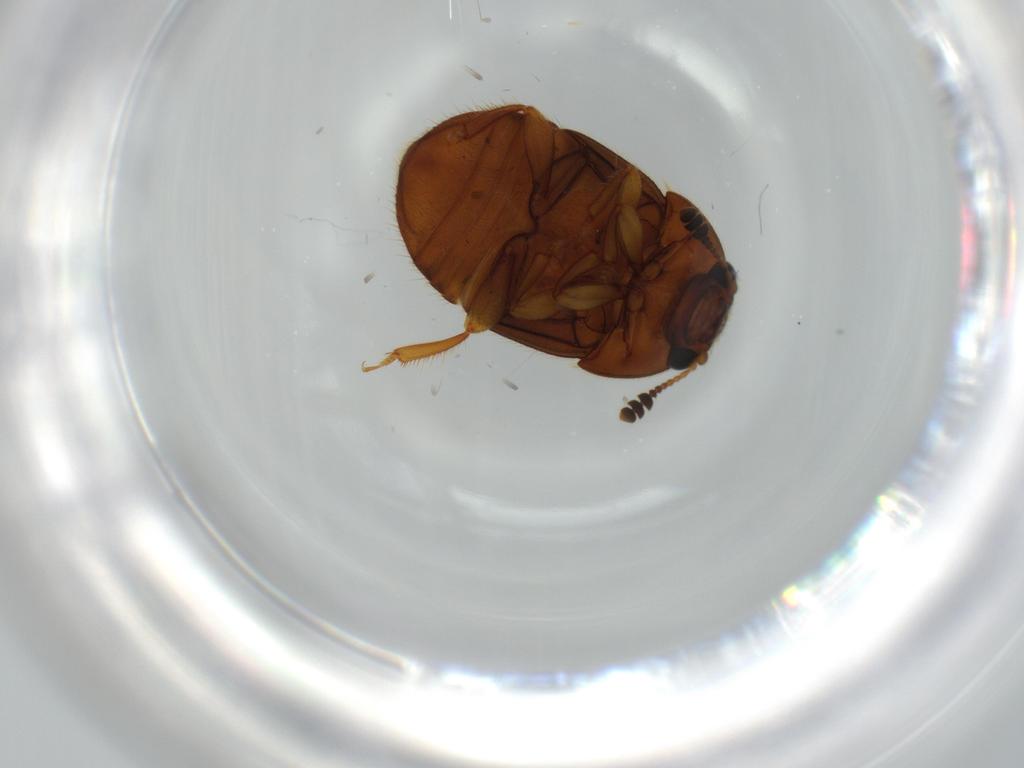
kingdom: Animalia
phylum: Arthropoda
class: Insecta
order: Coleoptera
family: Nitidulidae
